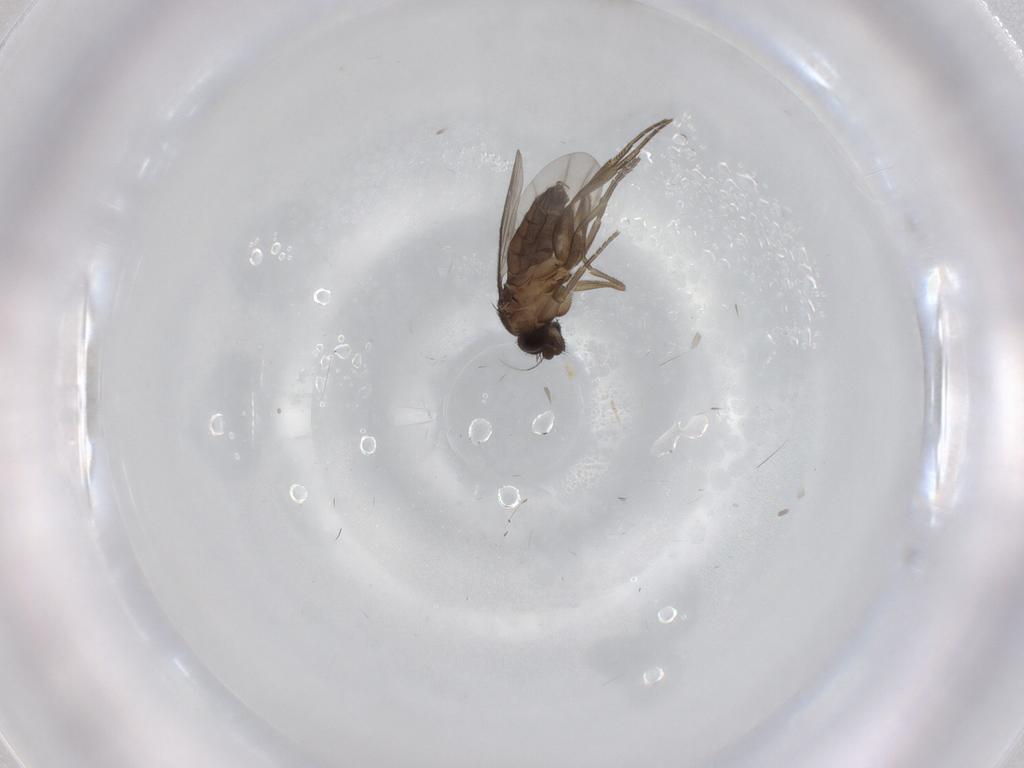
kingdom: Animalia
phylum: Arthropoda
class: Insecta
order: Diptera
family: Phoridae
